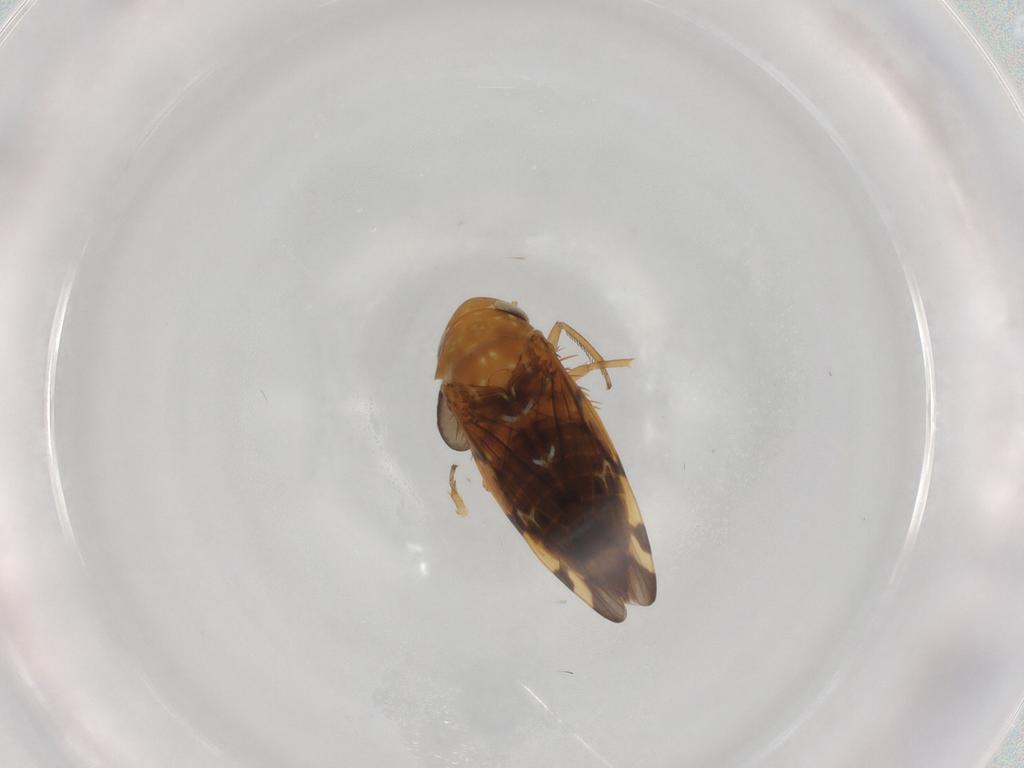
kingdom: Animalia
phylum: Arthropoda
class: Insecta
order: Hemiptera
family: Cicadellidae
